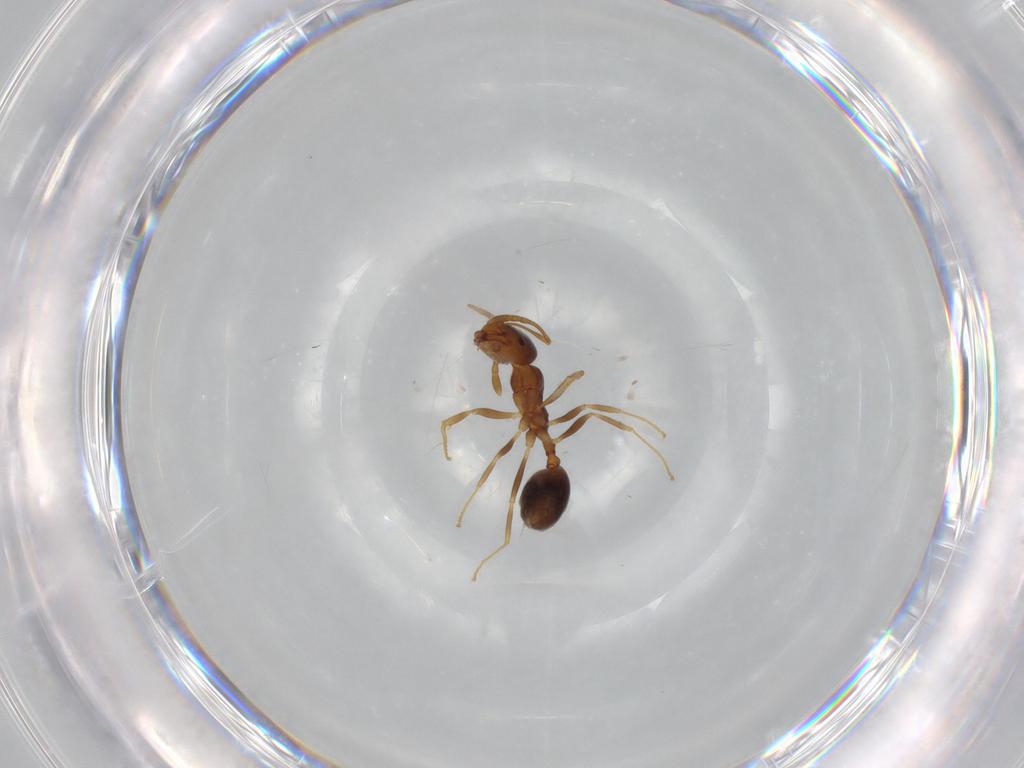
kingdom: Animalia
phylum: Arthropoda
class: Insecta
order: Hymenoptera
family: Formicidae
